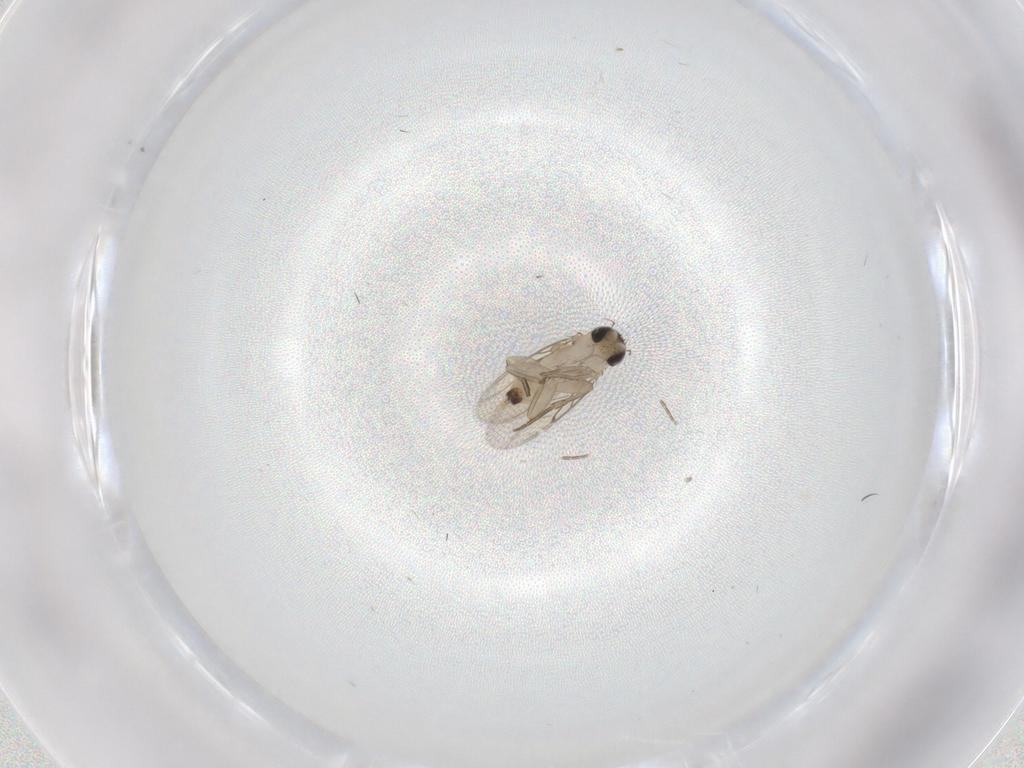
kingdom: Animalia
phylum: Arthropoda
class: Insecta
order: Diptera
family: Cecidomyiidae
